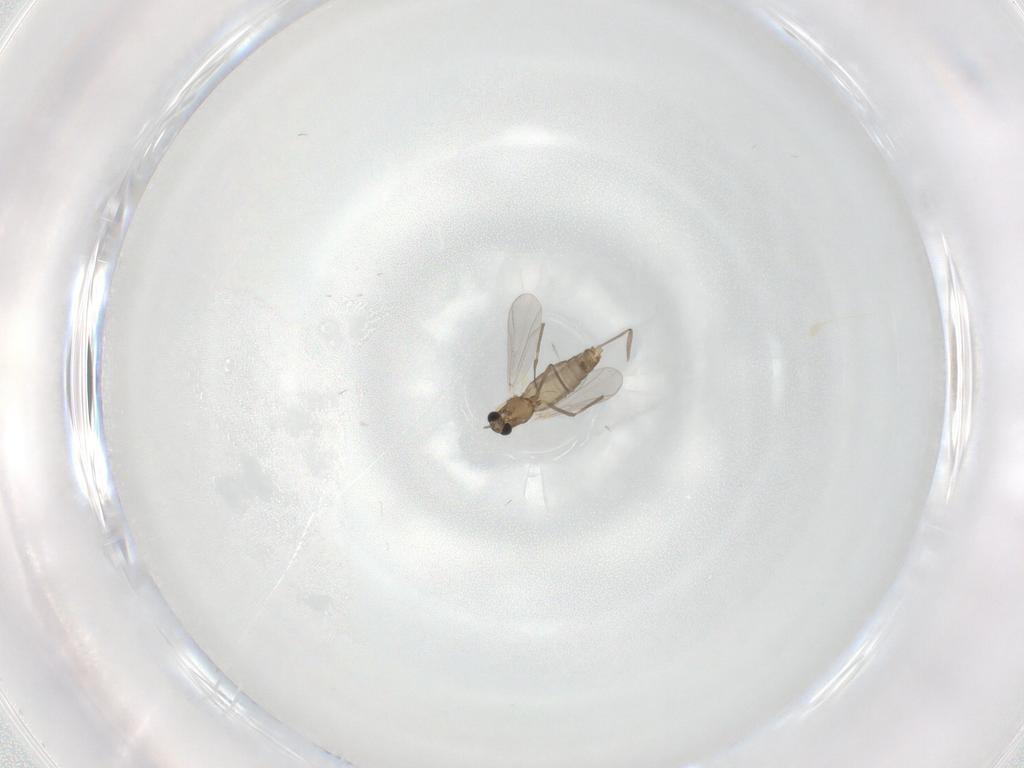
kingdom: Animalia
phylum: Arthropoda
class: Insecta
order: Diptera
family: Chironomidae
